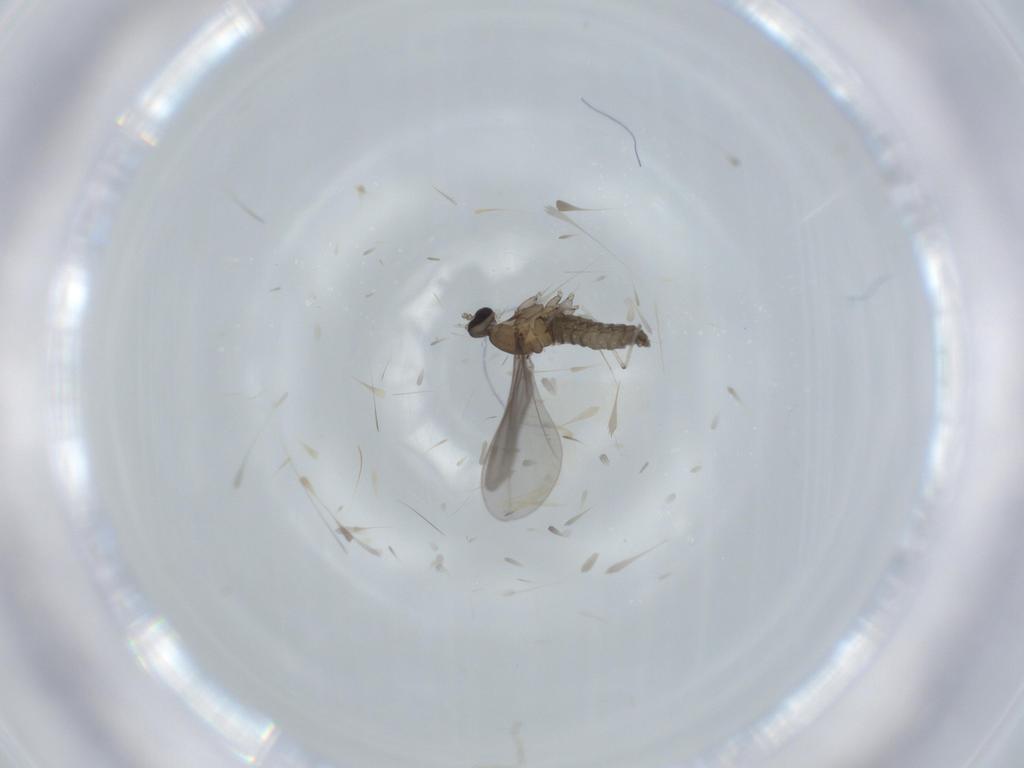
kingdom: Animalia
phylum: Arthropoda
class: Insecta
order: Diptera
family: Cecidomyiidae
